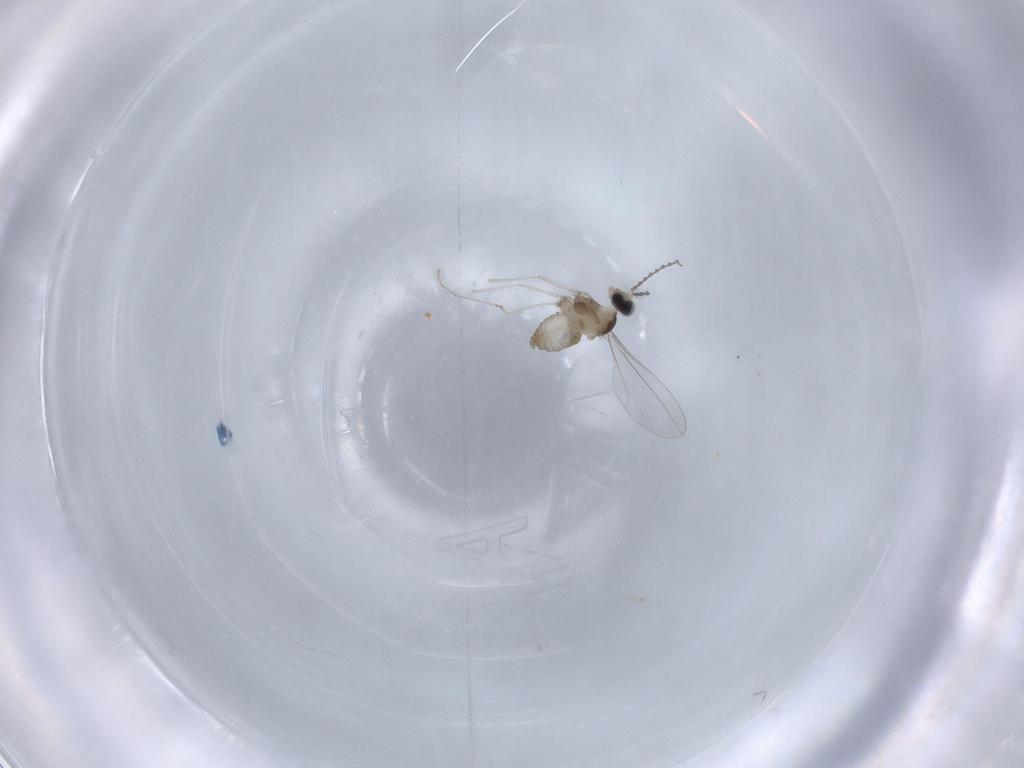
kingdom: Animalia
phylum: Arthropoda
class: Insecta
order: Diptera
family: Cecidomyiidae
